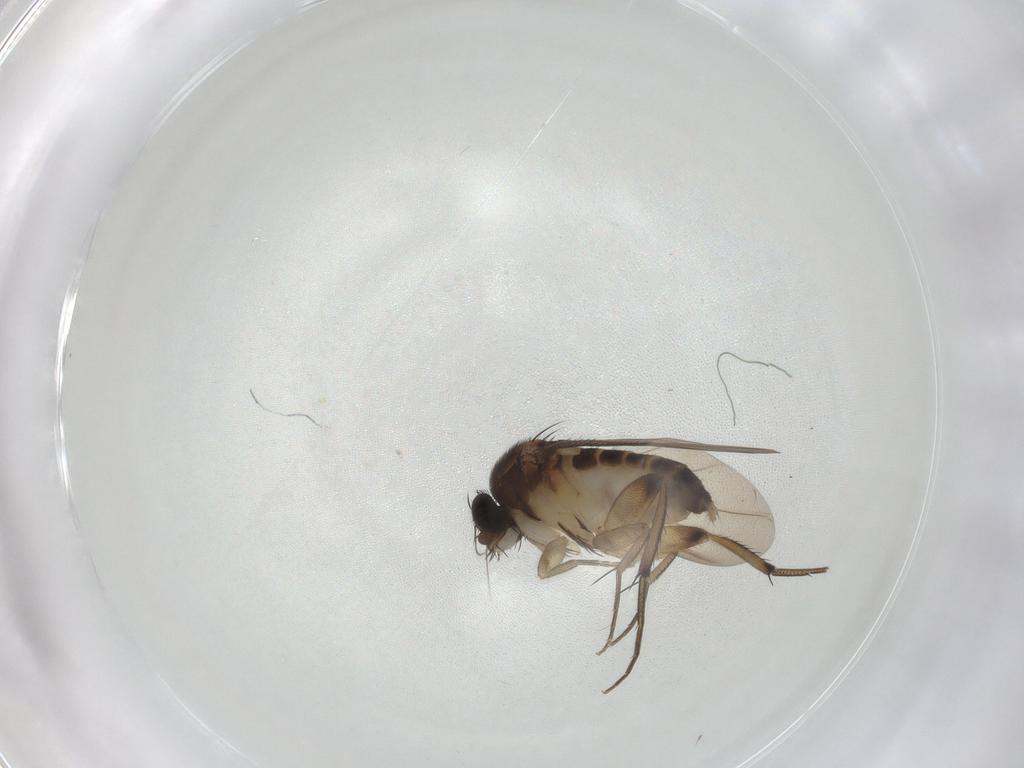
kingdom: Animalia
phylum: Arthropoda
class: Insecta
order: Diptera
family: Phoridae
